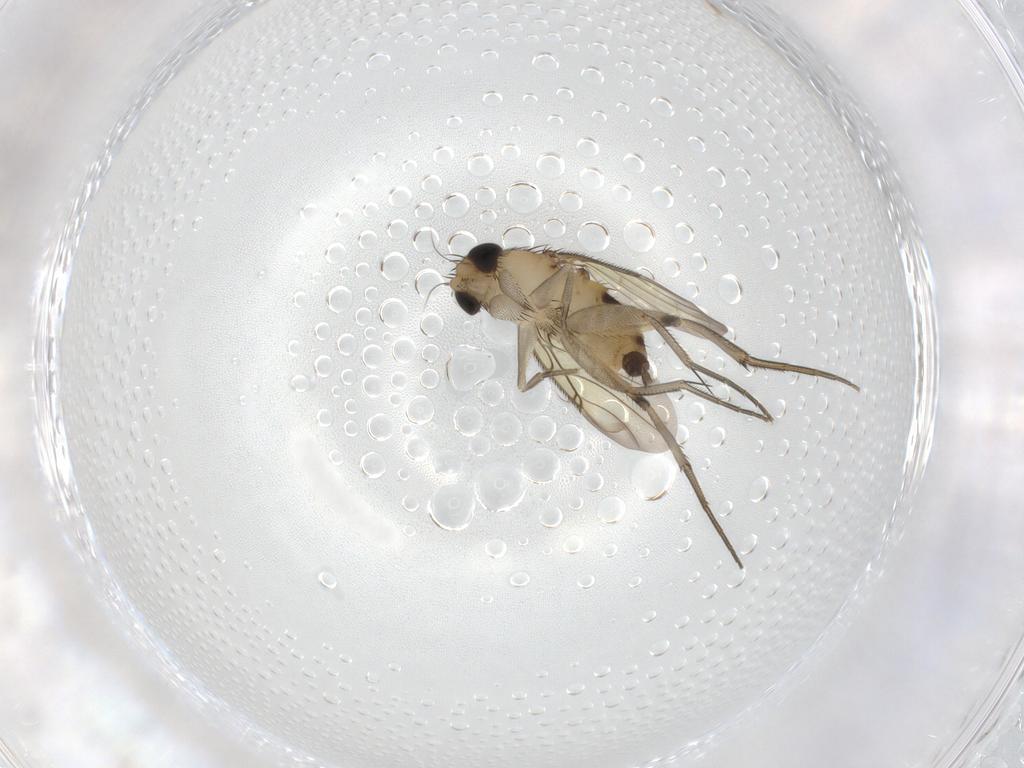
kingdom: Animalia
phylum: Arthropoda
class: Insecta
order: Diptera
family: Phoridae
